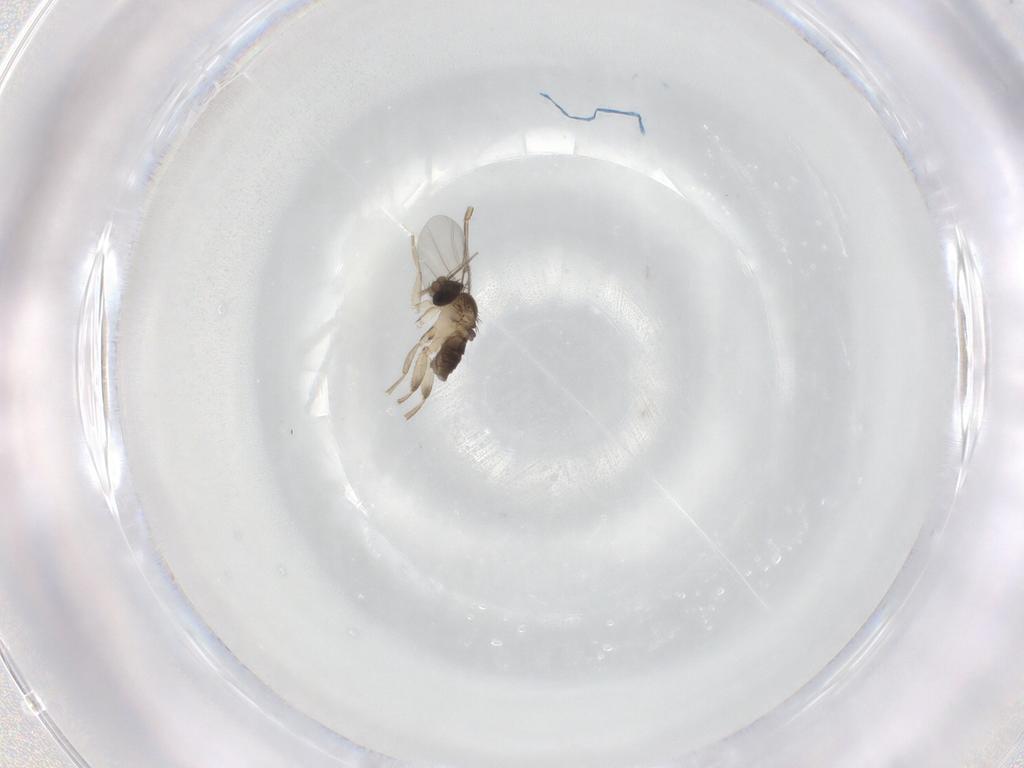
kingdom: Animalia
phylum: Arthropoda
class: Insecta
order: Diptera
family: Phoridae
